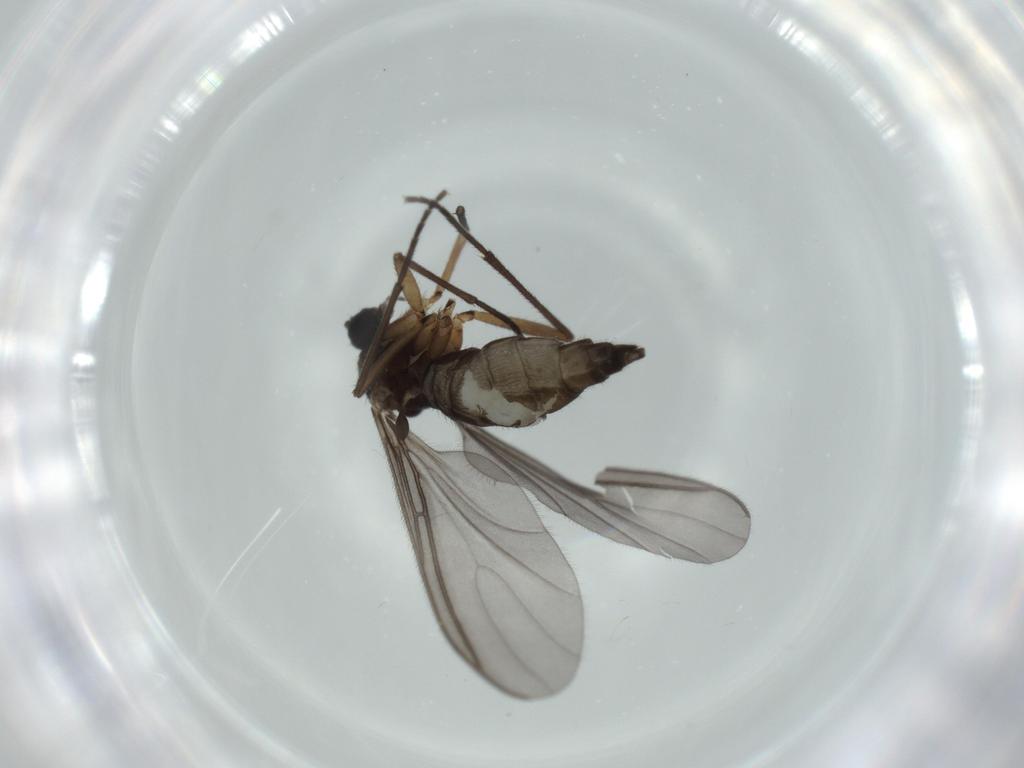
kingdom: Animalia
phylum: Arthropoda
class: Insecta
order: Diptera
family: Sciaridae
